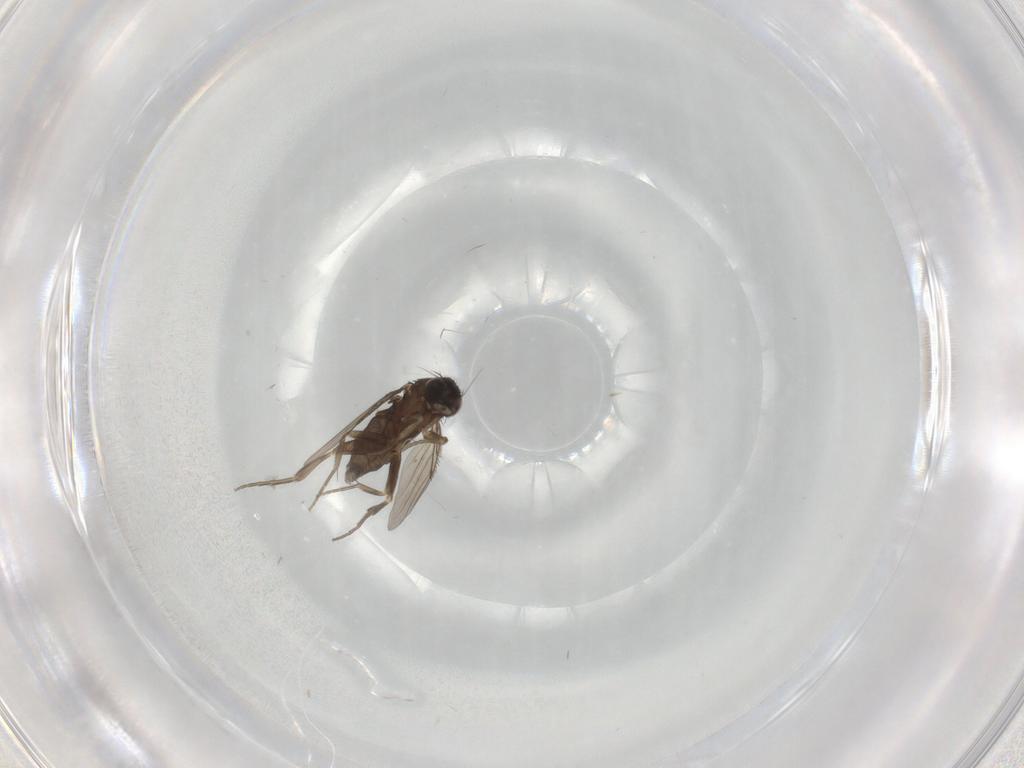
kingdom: Animalia
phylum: Arthropoda
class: Insecta
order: Diptera
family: Phoridae
